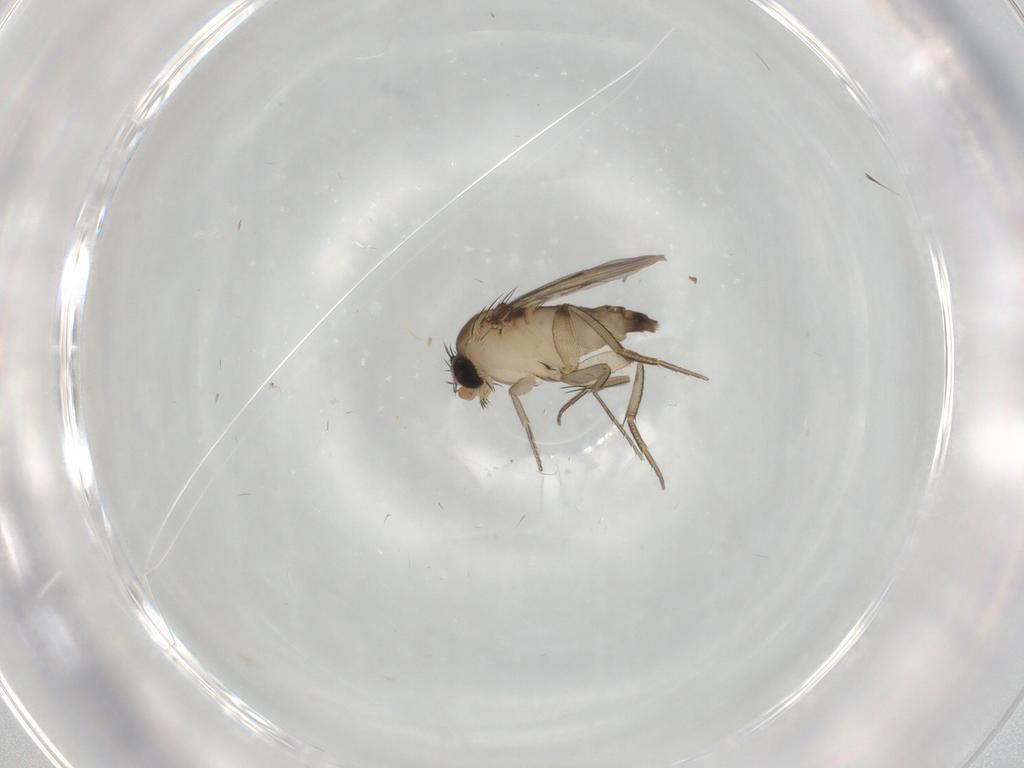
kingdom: Animalia
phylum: Arthropoda
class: Insecta
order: Diptera
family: Phoridae
